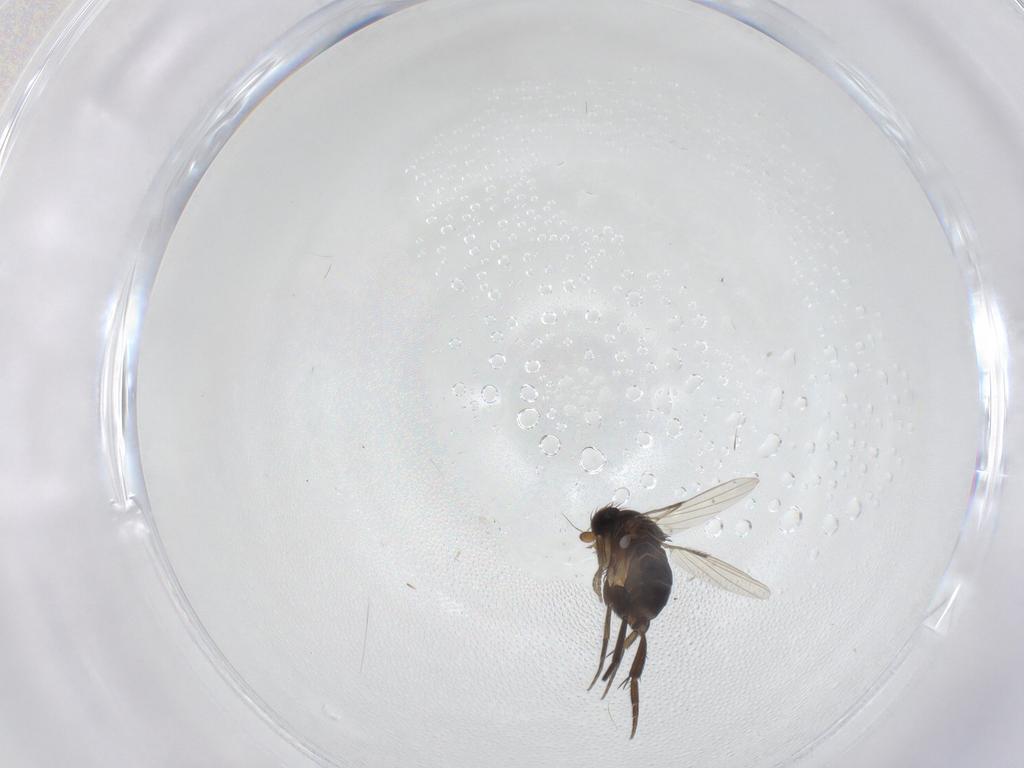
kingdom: Animalia
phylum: Arthropoda
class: Insecta
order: Diptera
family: Phoridae
